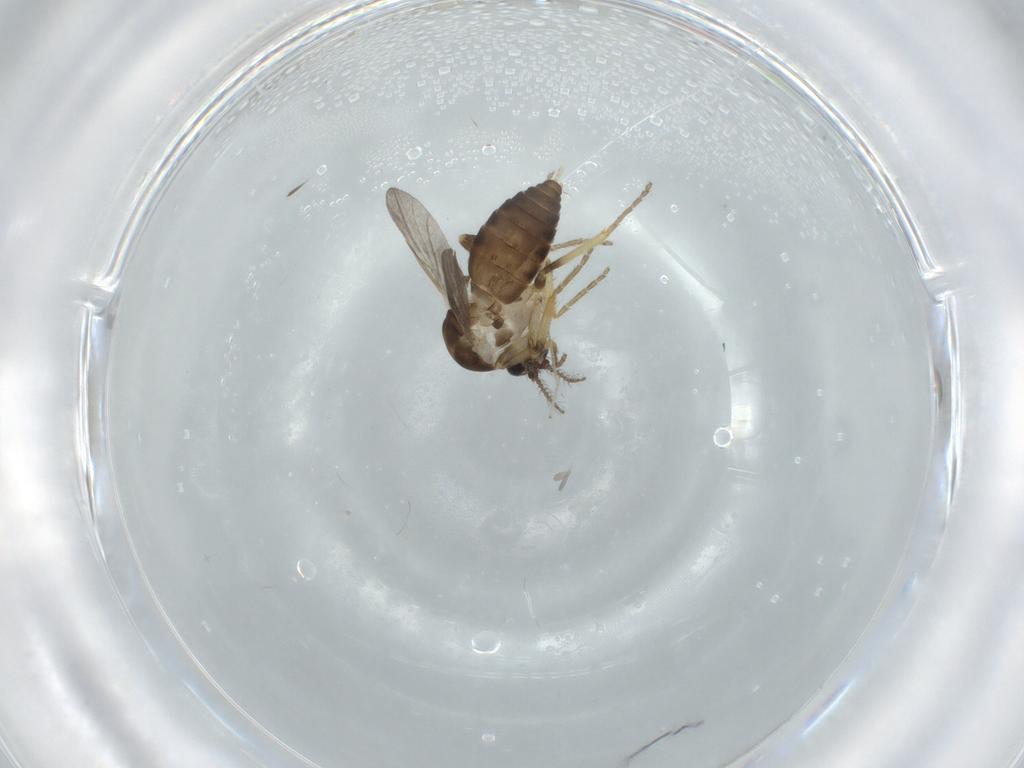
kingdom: Animalia
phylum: Arthropoda
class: Insecta
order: Diptera
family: Ceratopogonidae
